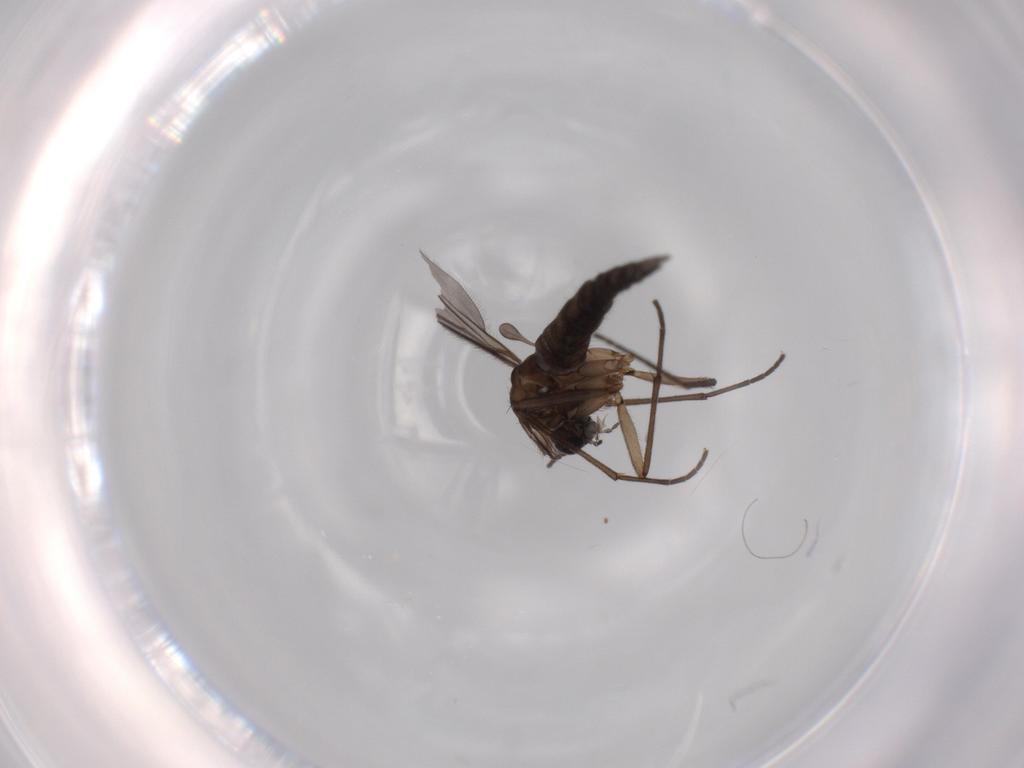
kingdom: Animalia
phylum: Arthropoda
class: Insecta
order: Diptera
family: Sciaridae
